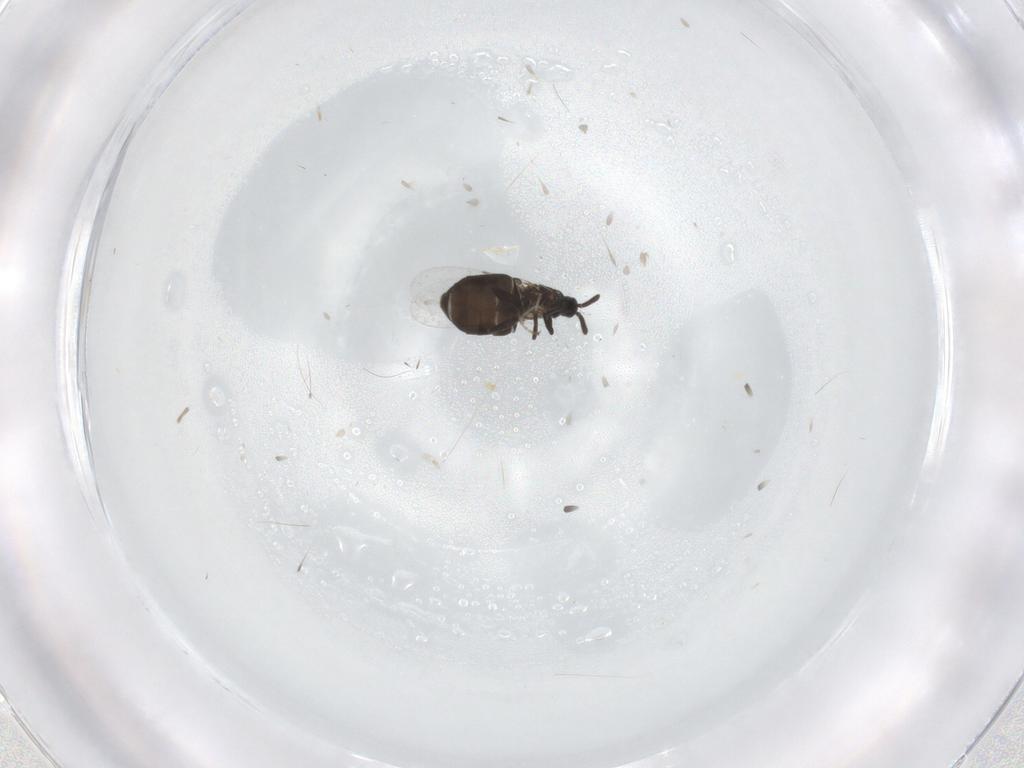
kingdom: Animalia
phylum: Arthropoda
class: Insecta
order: Diptera
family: Scatopsidae
